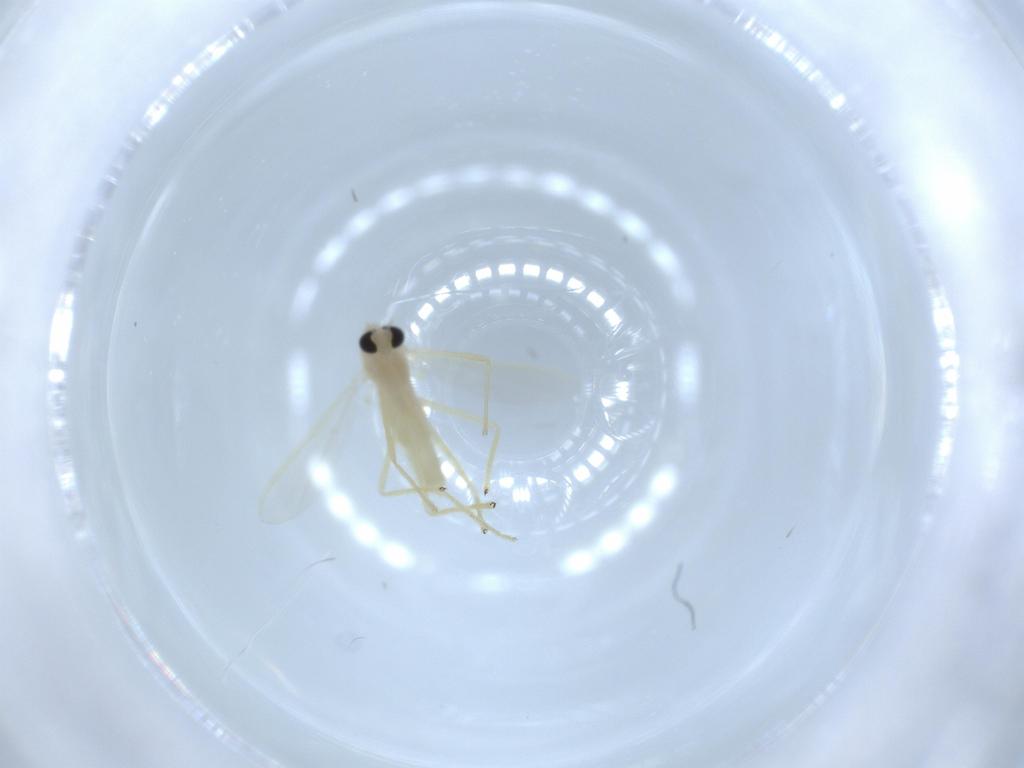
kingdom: Animalia
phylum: Arthropoda
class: Insecta
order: Diptera
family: Chironomidae
